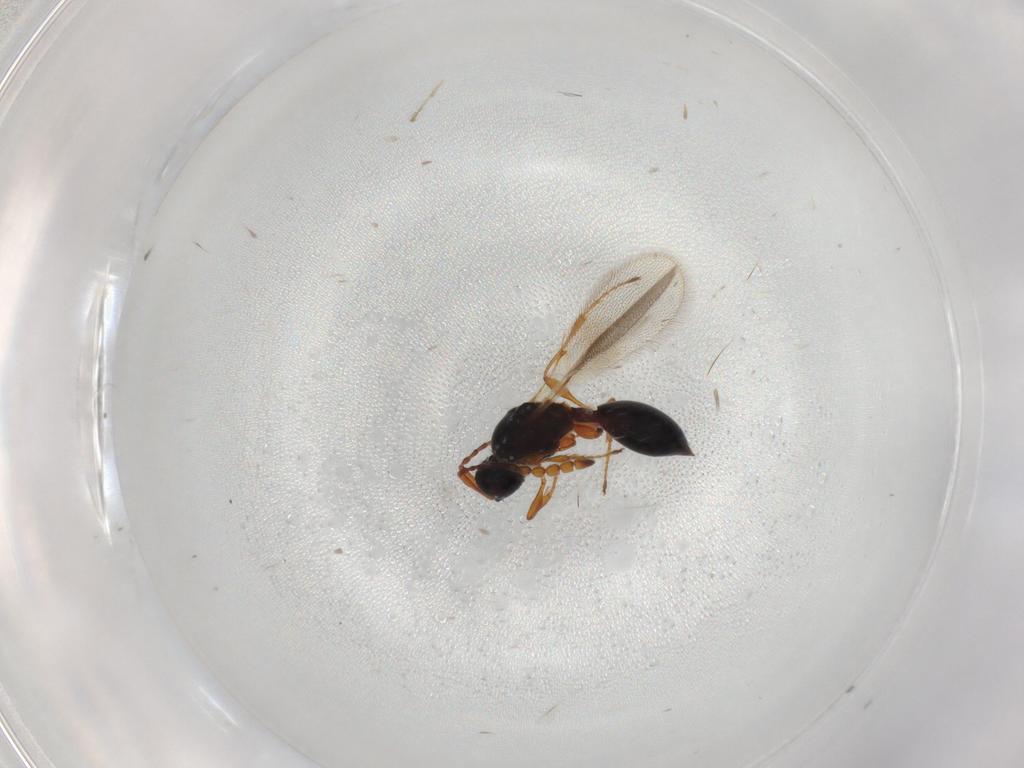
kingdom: Animalia
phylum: Arthropoda
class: Insecta
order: Hymenoptera
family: Diapriidae
